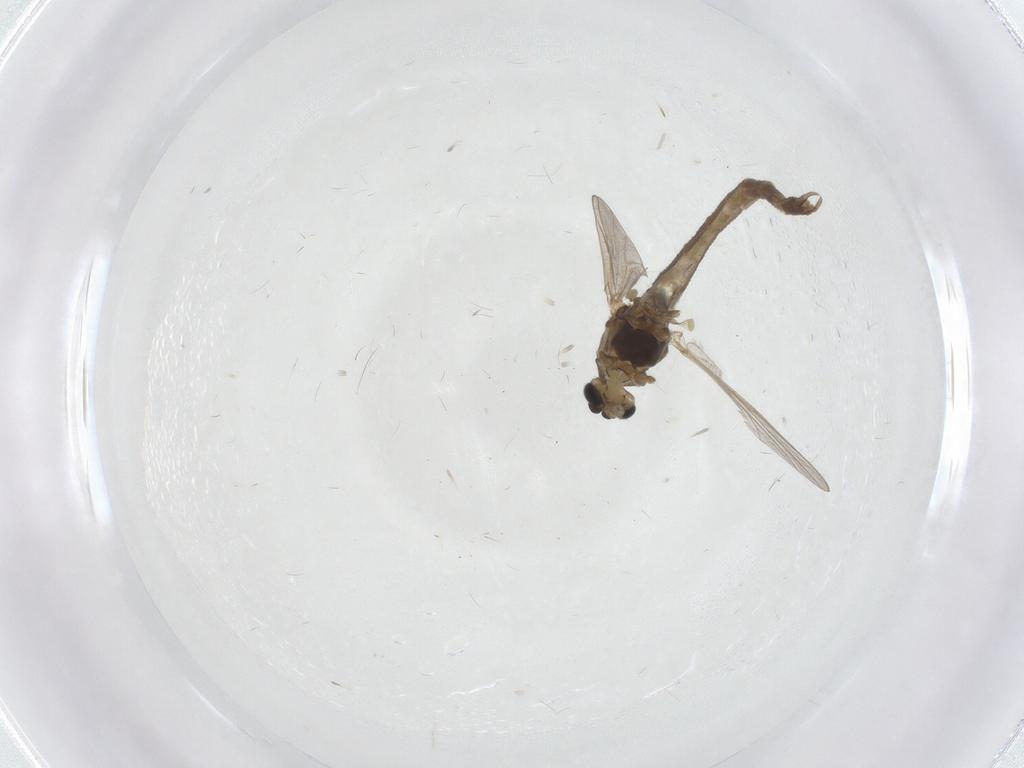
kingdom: Animalia
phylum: Arthropoda
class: Insecta
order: Diptera
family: Chironomidae
